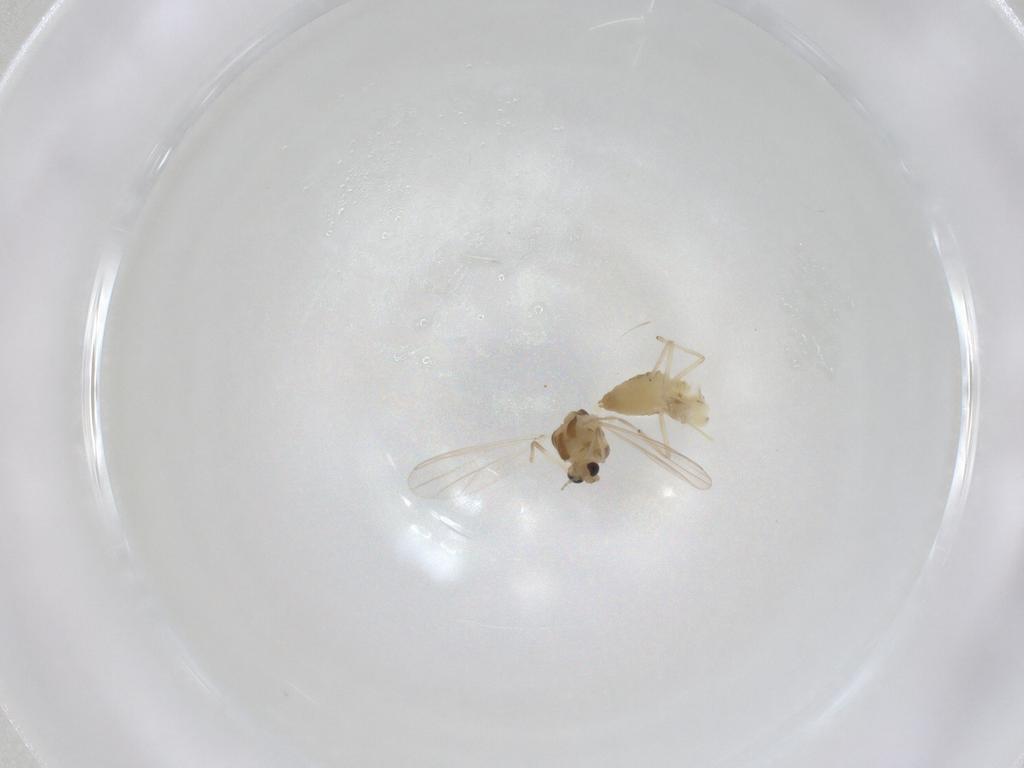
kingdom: Animalia
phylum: Arthropoda
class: Insecta
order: Diptera
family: Chironomidae
